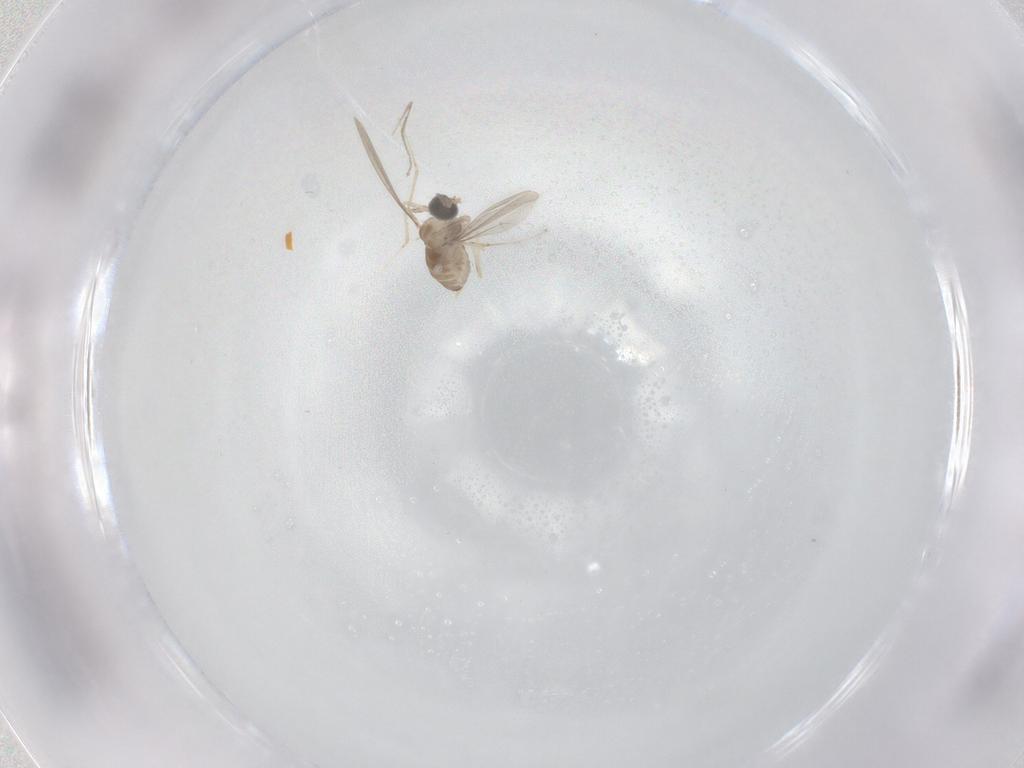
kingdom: Animalia
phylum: Arthropoda
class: Insecta
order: Diptera
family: Cecidomyiidae
